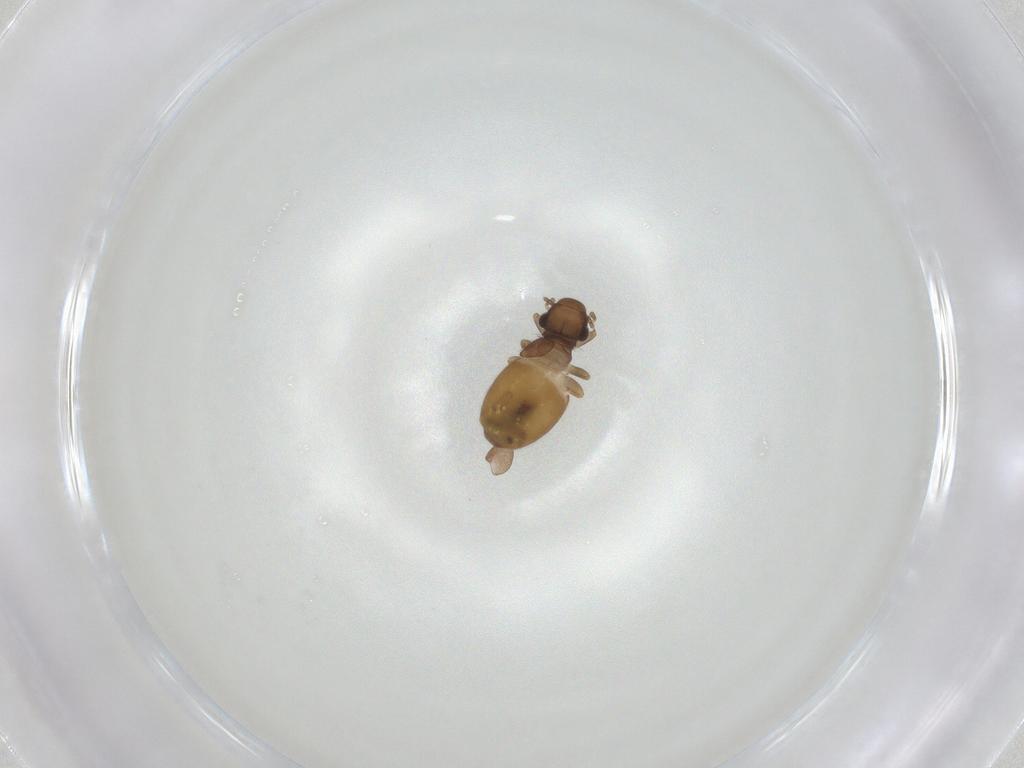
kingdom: Animalia
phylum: Arthropoda
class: Insecta
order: Psocodea
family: Trogiidae
